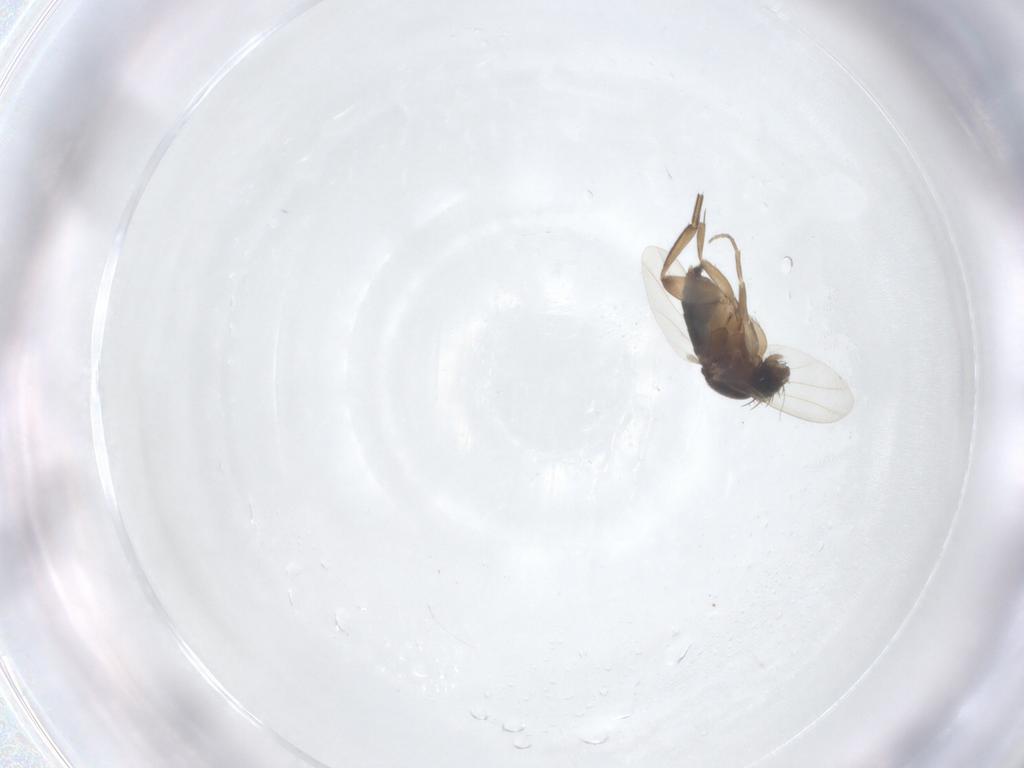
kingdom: Animalia
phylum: Arthropoda
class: Insecta
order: Diptera
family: Phoridae
